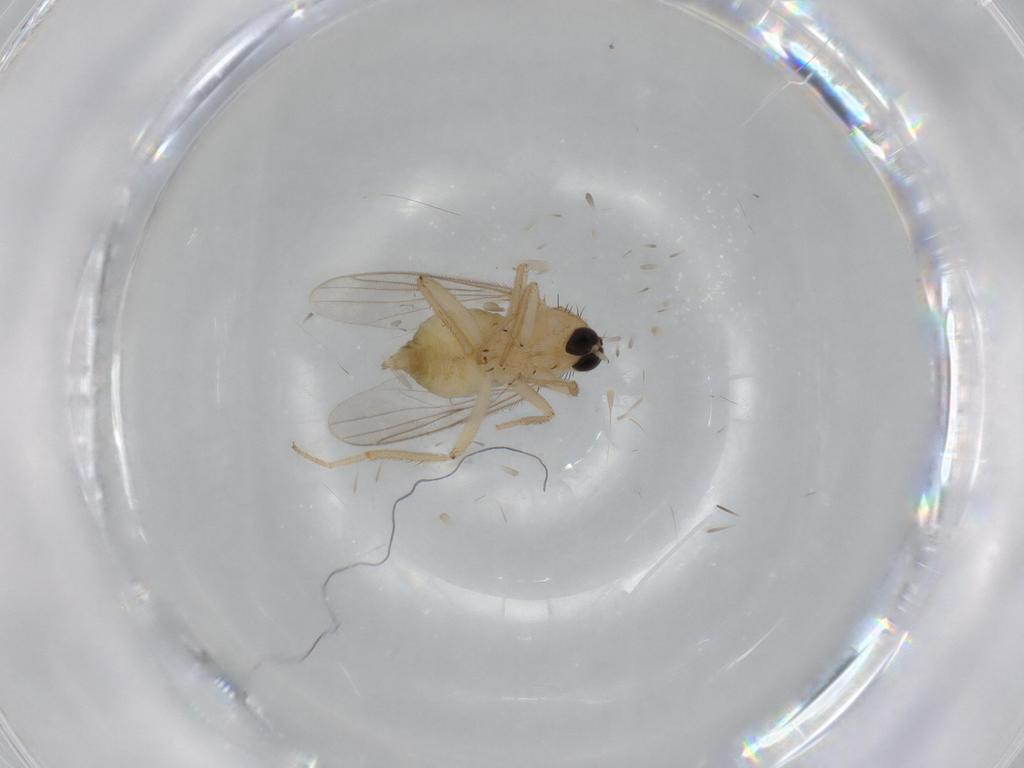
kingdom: Animalia
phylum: Arthropoda
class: Insecta
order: Diptera
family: Hybotidae
